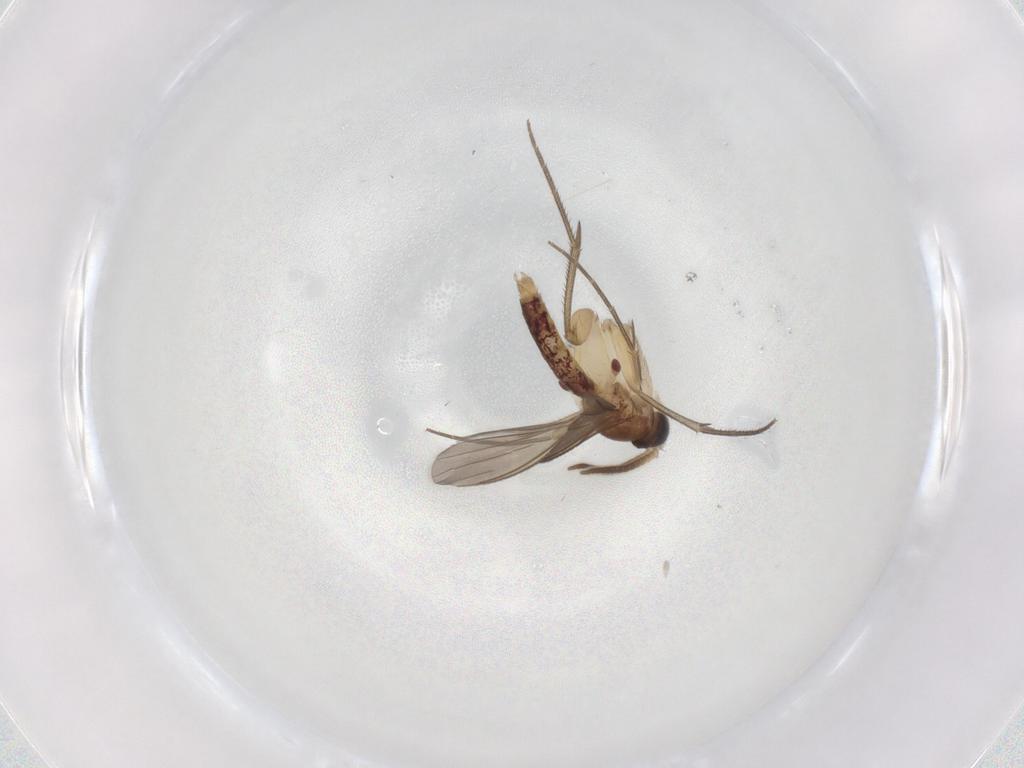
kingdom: Animalia
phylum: Arthropoda
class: Insecta
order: Diptera
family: Mycetophilidae
